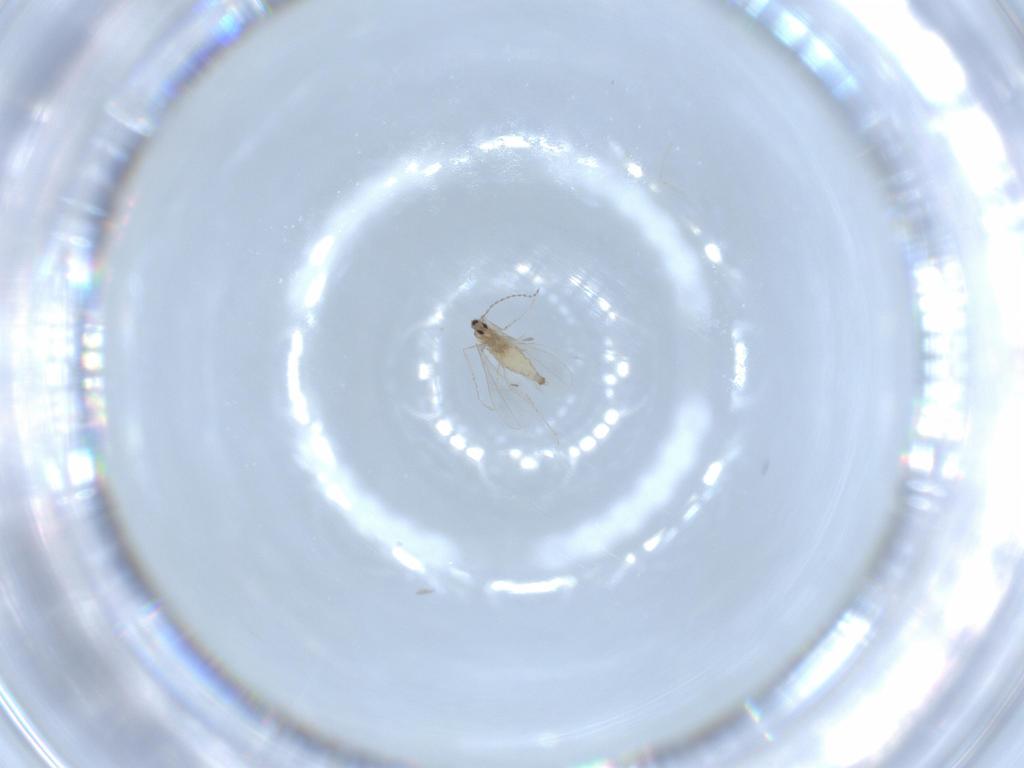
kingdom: Animalia
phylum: Arthropoda
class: Insecta
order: Diptera
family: Cecidomyiidae
